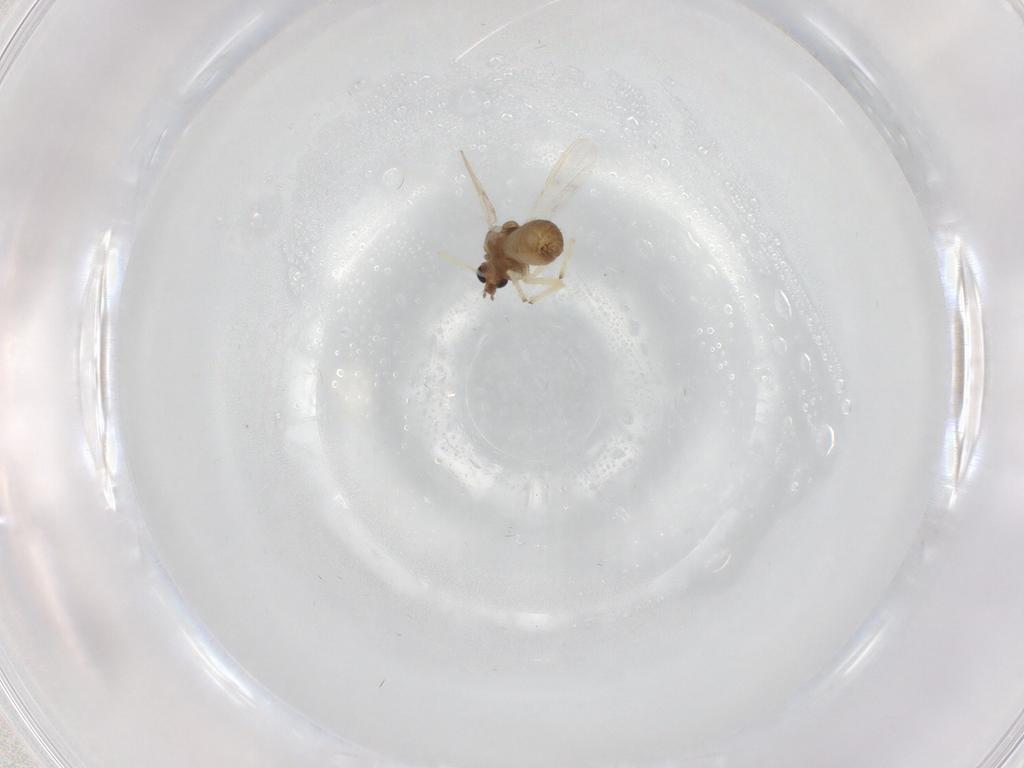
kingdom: Animalia
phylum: Arthropoda
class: Insecta
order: Diptera
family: Chironomidae
